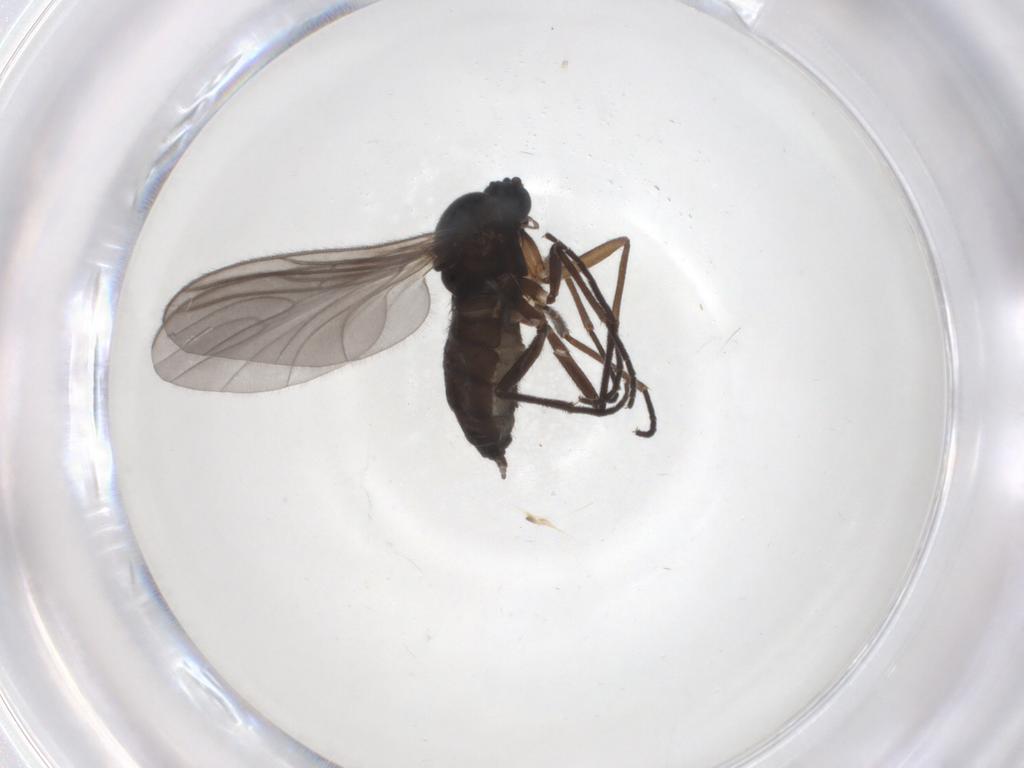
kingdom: Animalia
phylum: Arthropoda
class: Insecta
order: Diptera
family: Sciaridae
